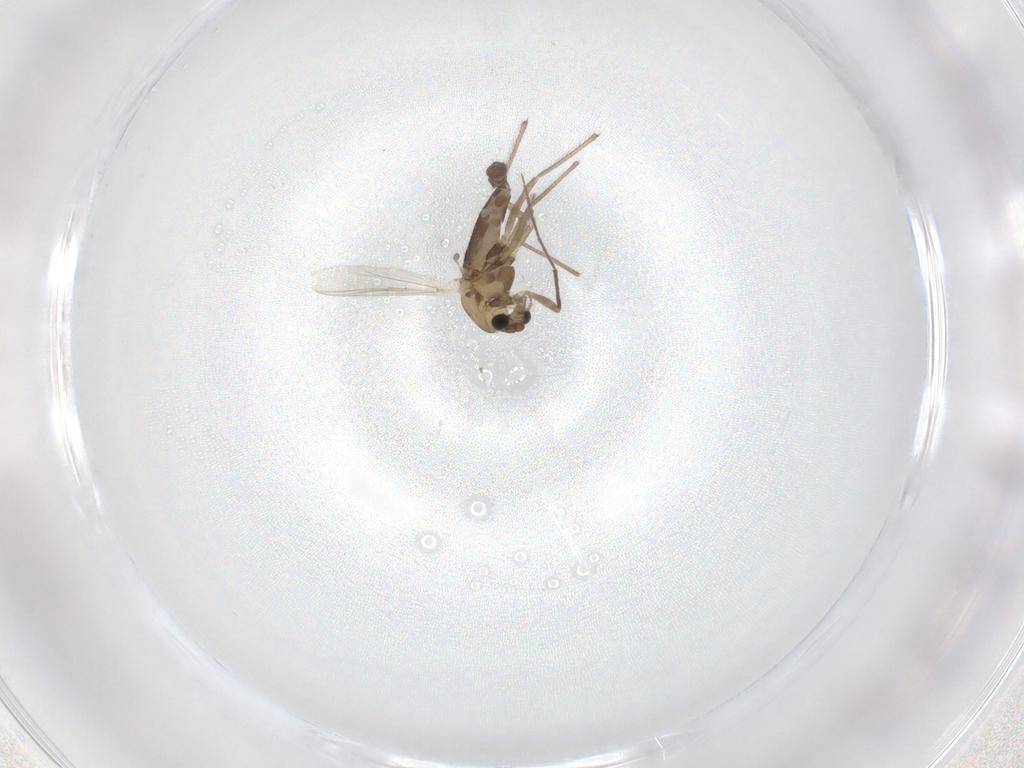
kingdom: Animalia
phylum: Arthropoda
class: Insecta
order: Diptera
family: Chironomidae
